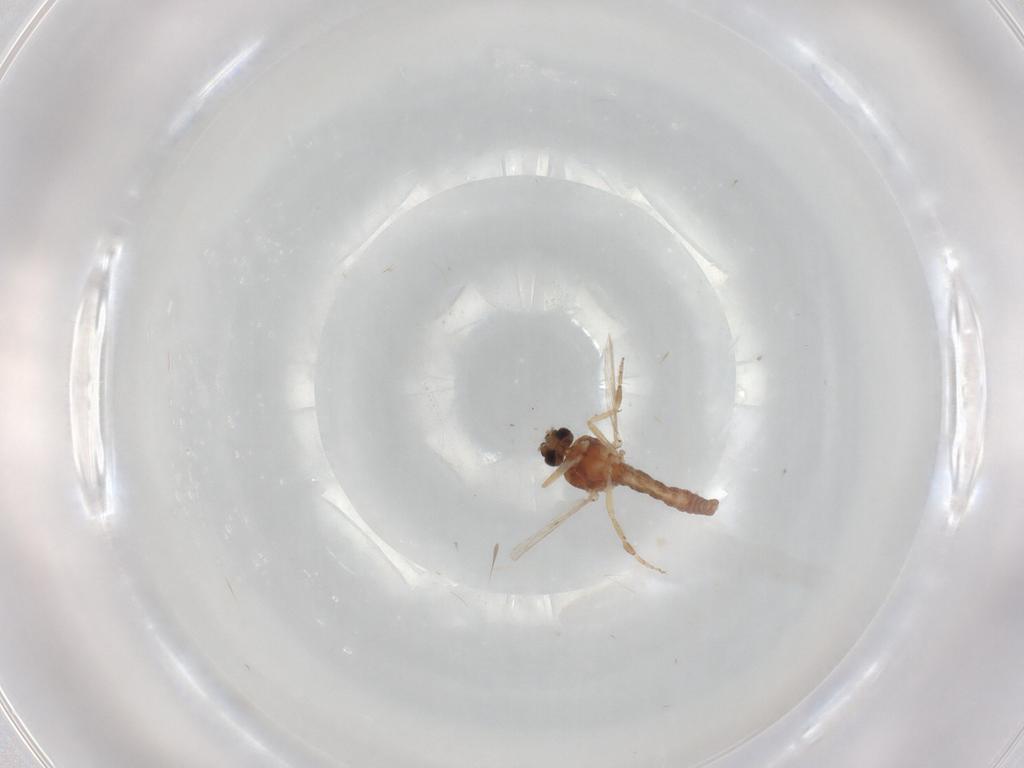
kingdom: Animalia
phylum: Arthropoda
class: Insecta
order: Diptera
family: Ceratopogonidae
